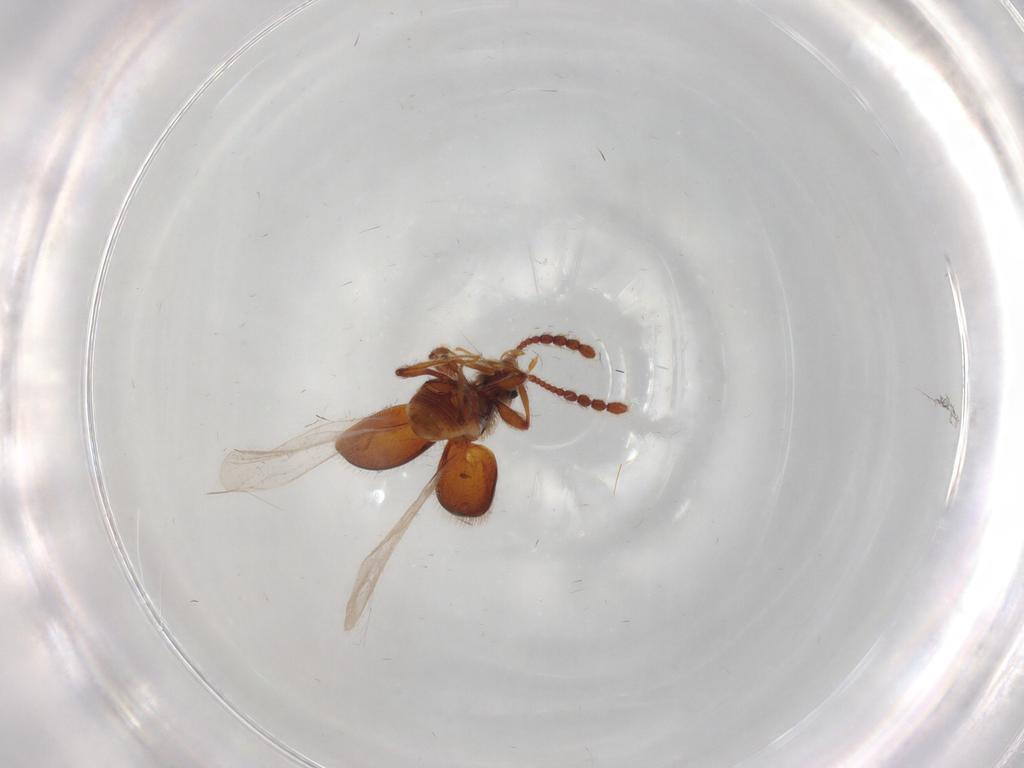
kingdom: Animalia
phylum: Arthropoda
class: Insecta
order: Coleoptera
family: Staphylinidae
